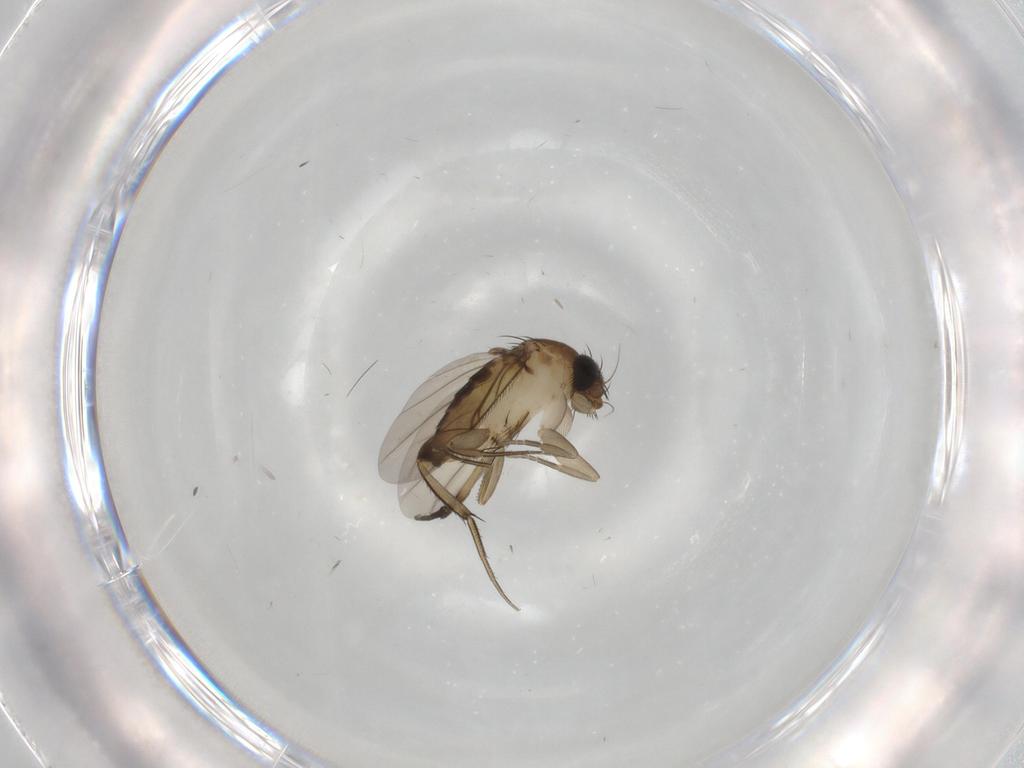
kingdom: Animalia
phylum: Arthropoda
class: Insecta
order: Diptera
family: Phoridae
